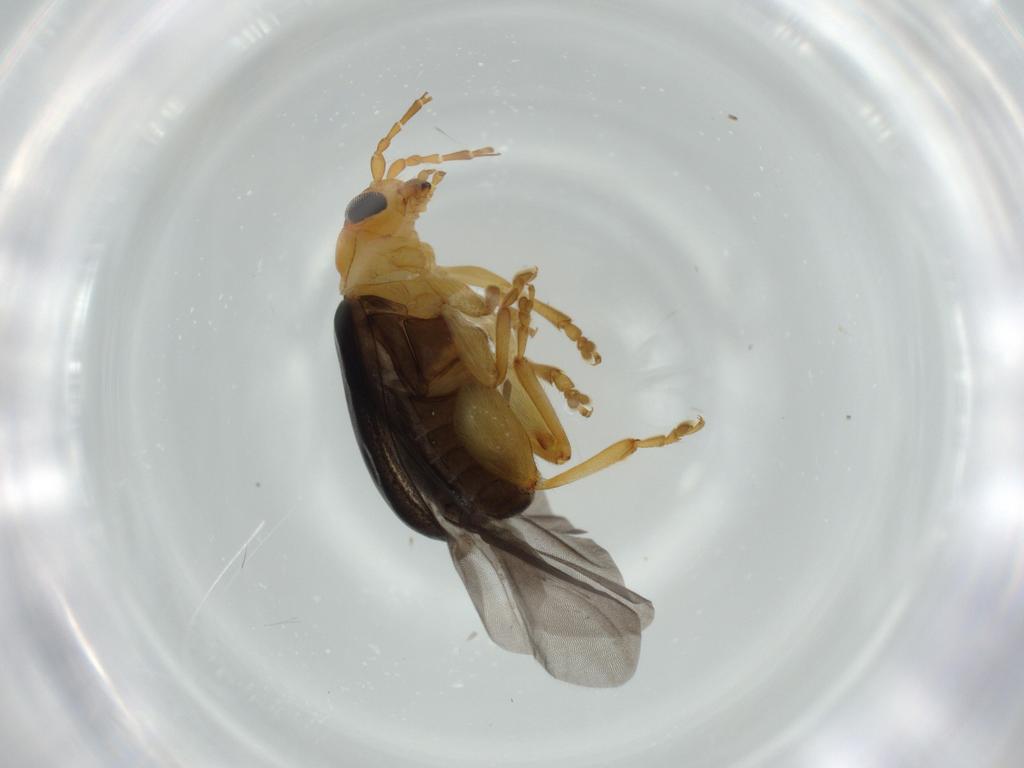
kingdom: Animalia
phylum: Arthropoda
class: Insecta
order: Coleoptera
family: Chrysomelidae
